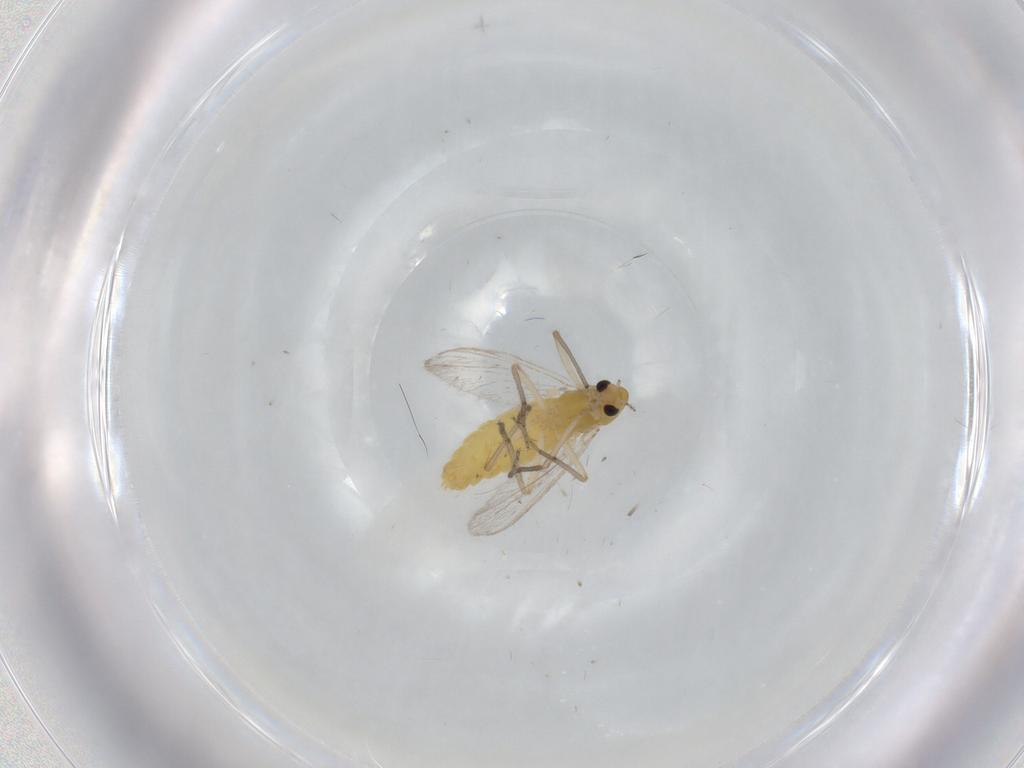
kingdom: Animalia
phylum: Arthropoda
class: Insecta
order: Diptera
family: Chironomidae
